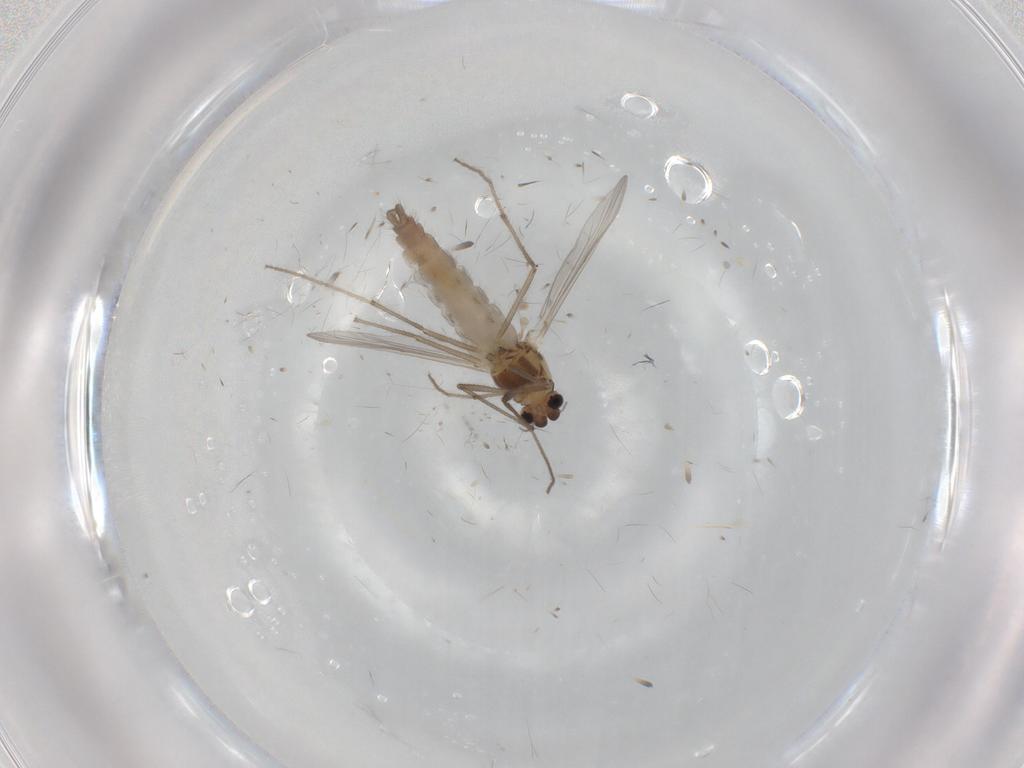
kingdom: Animalia
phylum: Arthropoda
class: Insecta
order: Diptera
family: Chironomidae
